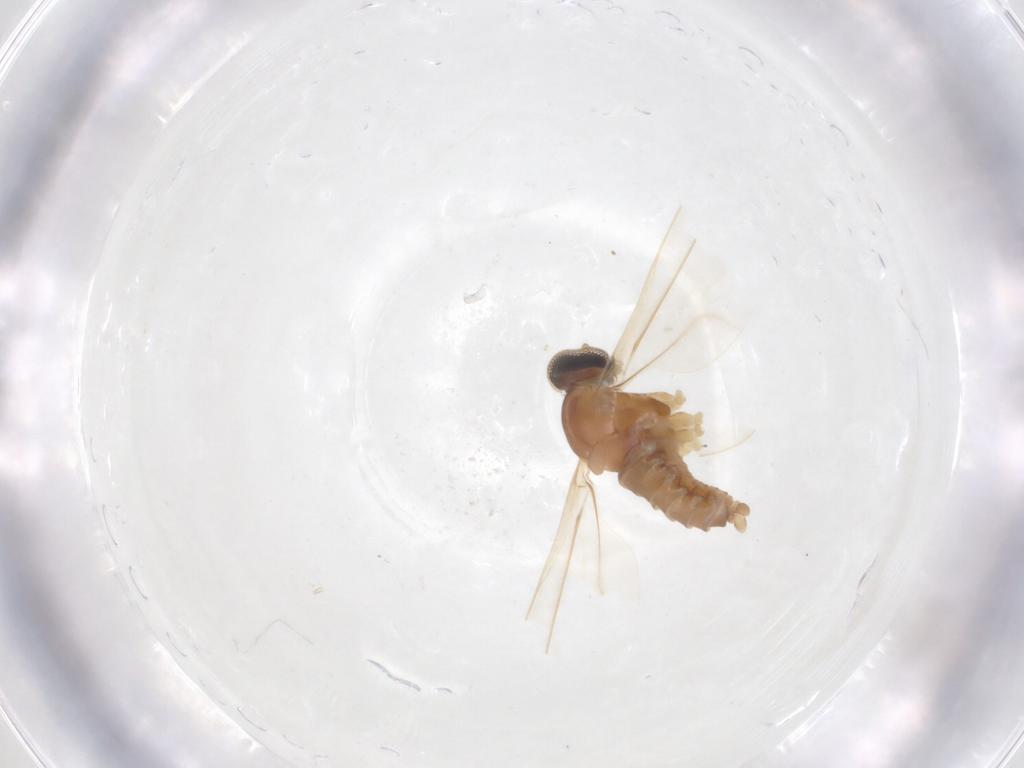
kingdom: Animalia
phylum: Arthropoda
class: Insecta
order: Diptera
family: Cecidomyiidae
